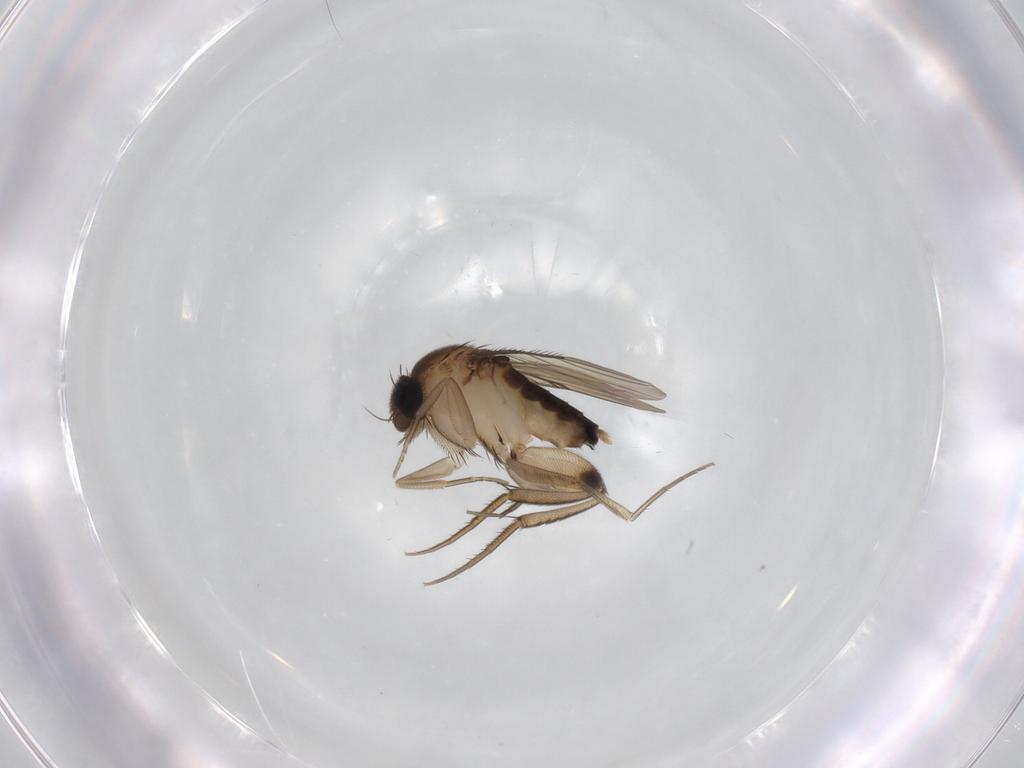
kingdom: Animalia
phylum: Arthropoda
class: Insecta
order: Diptera
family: Phoridae
